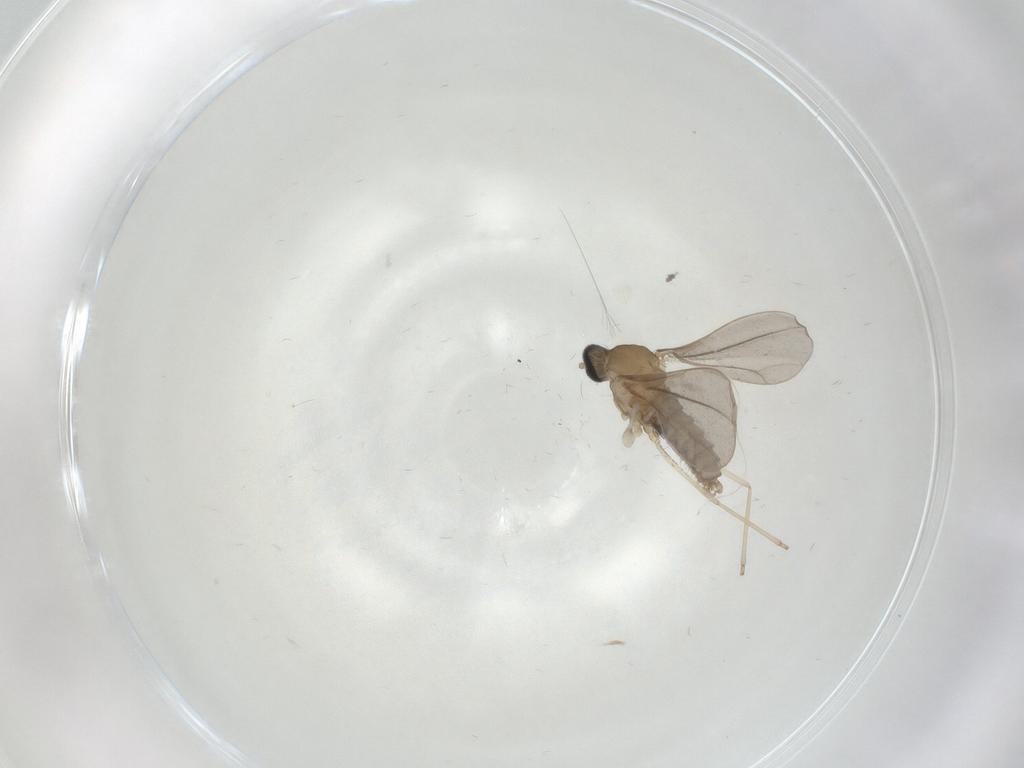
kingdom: Animalia
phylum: Arthropoda
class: Insecta
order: Diptera
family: Cecidomyiidae
